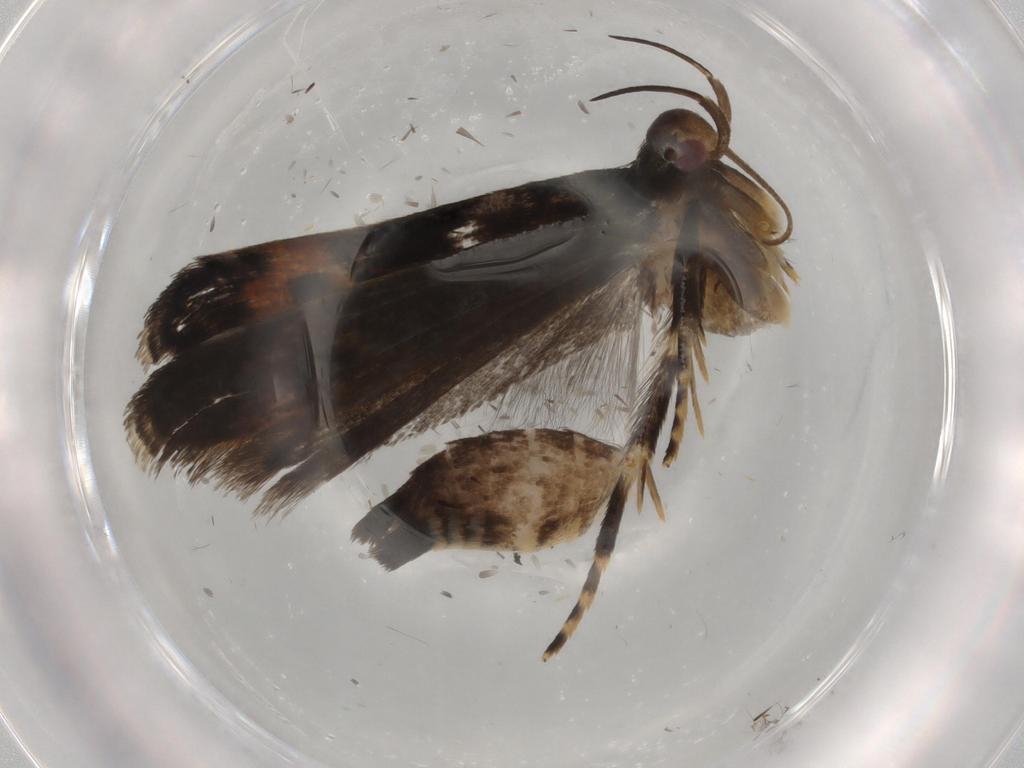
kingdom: Animalia
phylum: Arthropoda
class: Insecta
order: Lepidoptera
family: Gelechiidae
